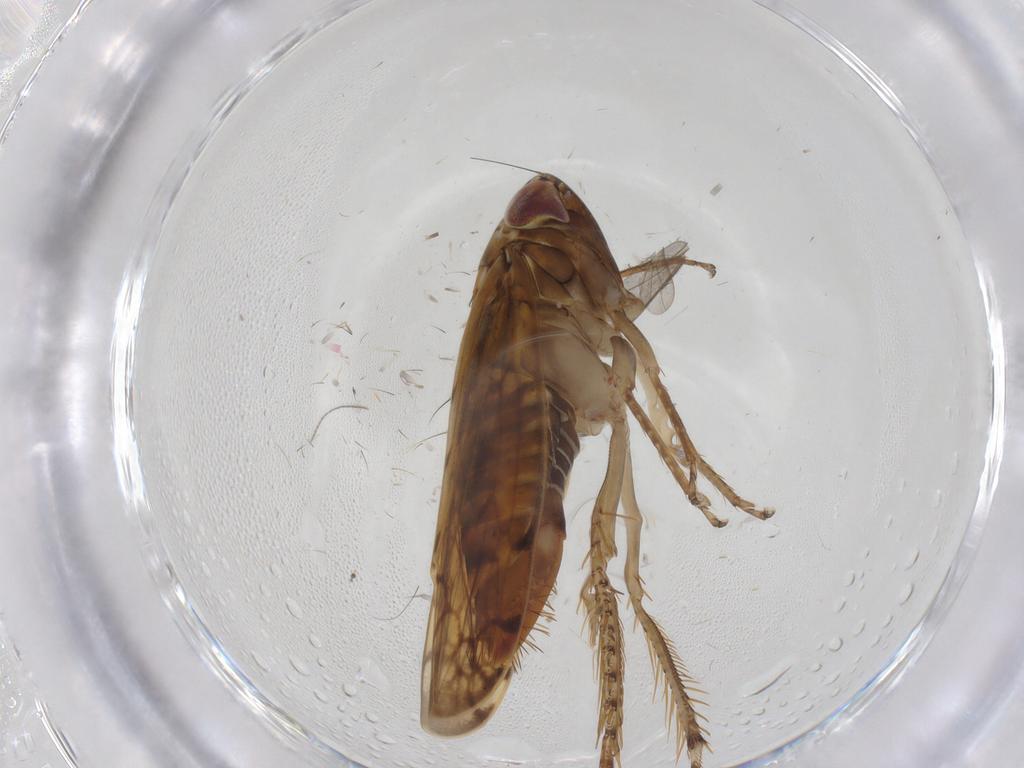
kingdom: Animalia
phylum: Arthropoda
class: Insecta
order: Hemiptera
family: Cicadellidae
